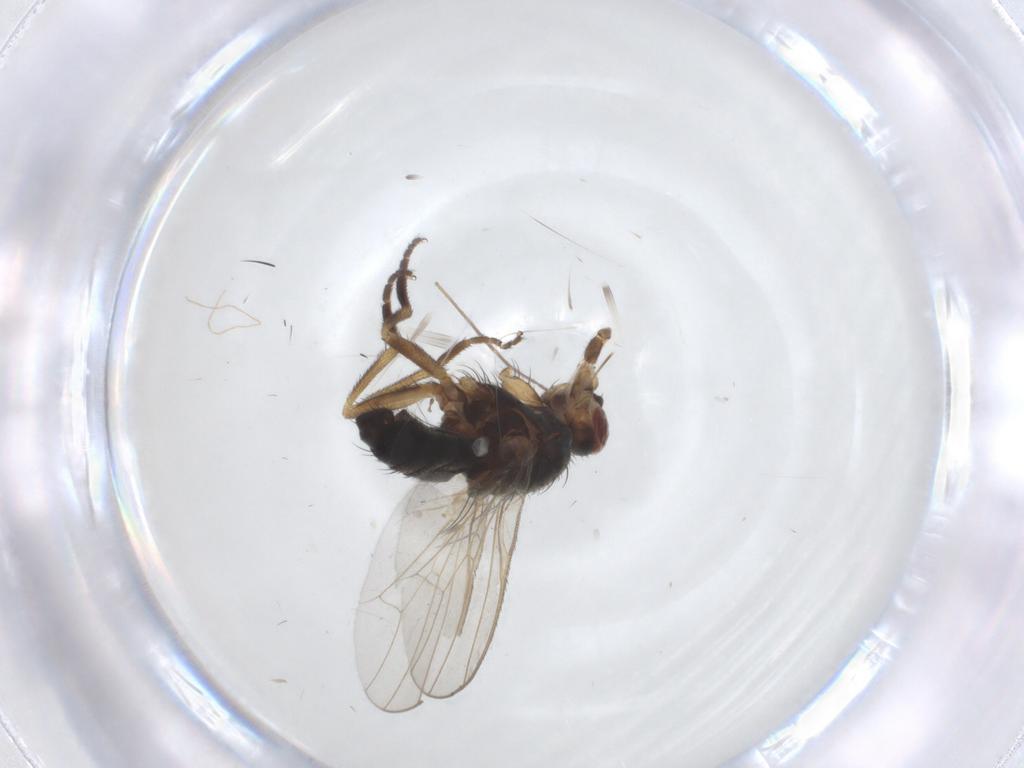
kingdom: Animalia
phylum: Arthropoda
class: Insecta
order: Diptera
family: Heleomyzidae
